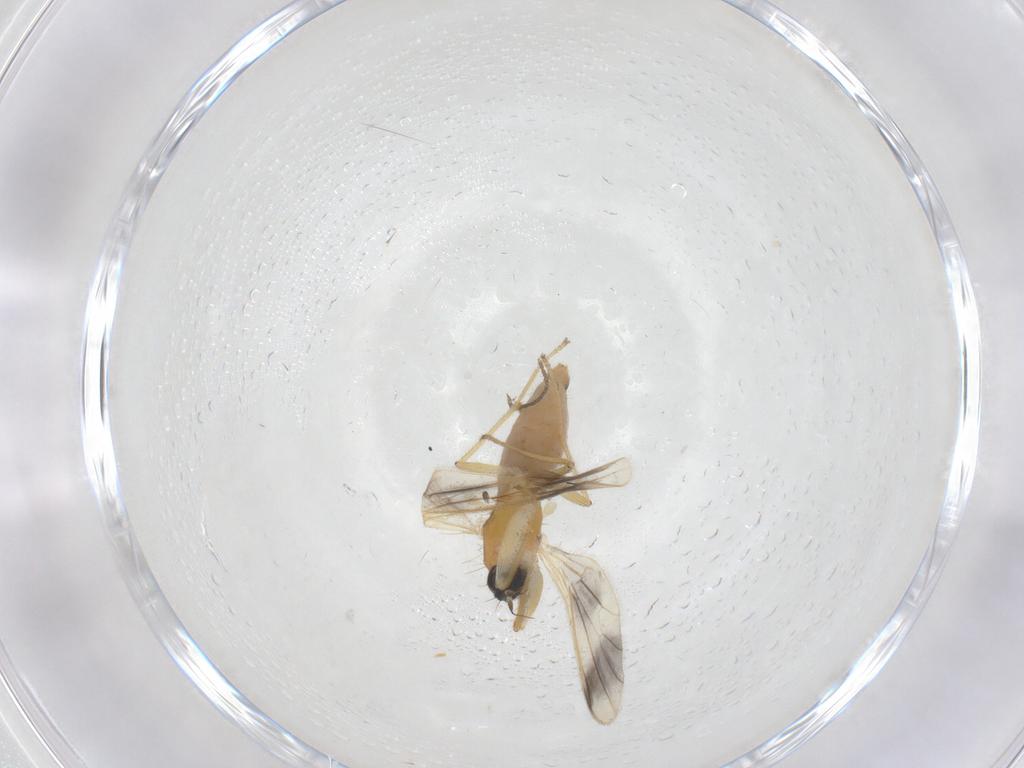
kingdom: Animalia
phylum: Arthropoda
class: Insecta
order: Diptera
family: Empididae
